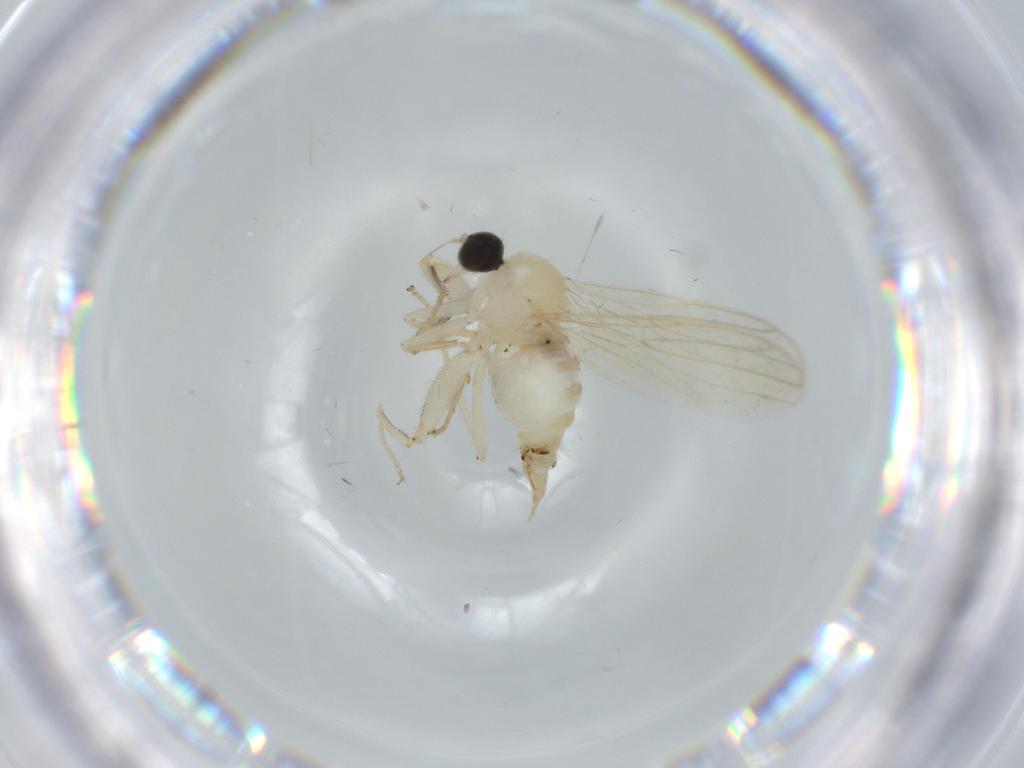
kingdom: Animalia
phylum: Arthropoda
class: Insecta
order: Diptera
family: Hybotidae
